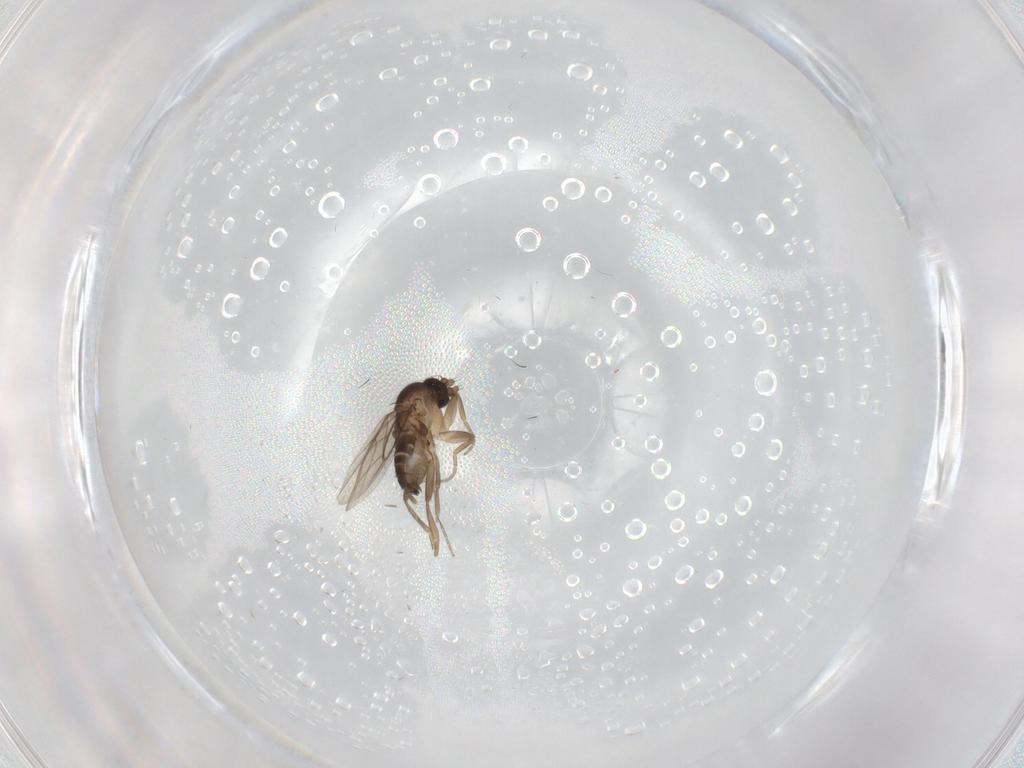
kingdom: Animalia
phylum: Arthropoda
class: Insecta
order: Diptera
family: Phoridae
